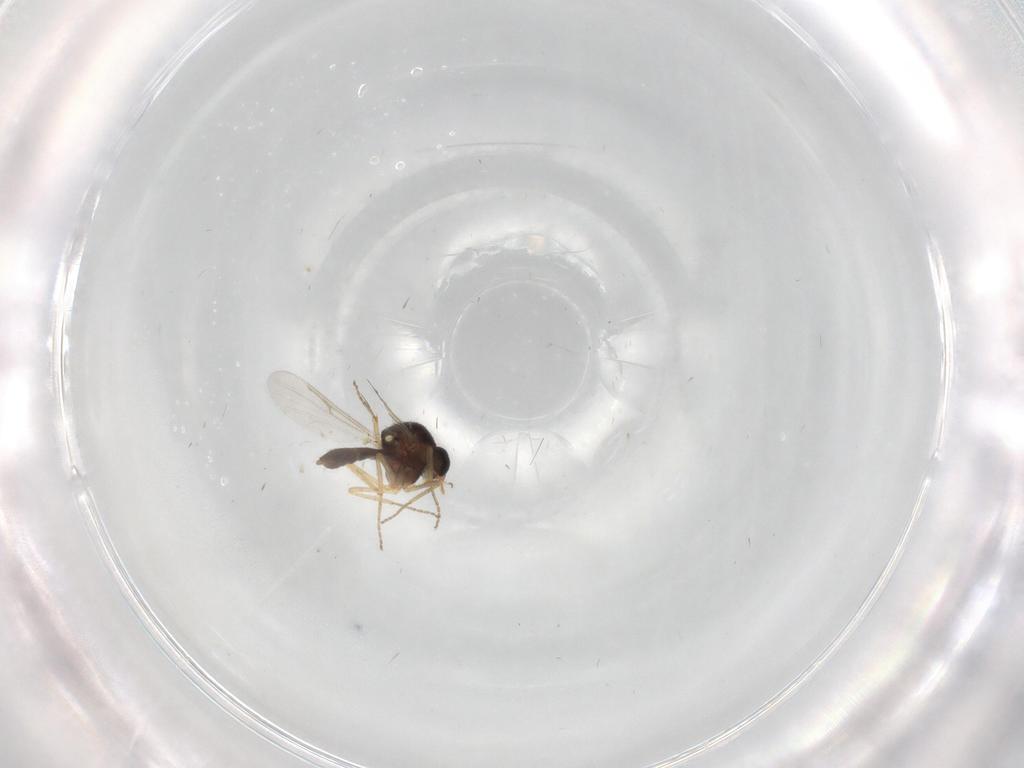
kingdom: Animalia
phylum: Arthropoda
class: Insecta
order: Diptera
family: Ceratopogonidae
